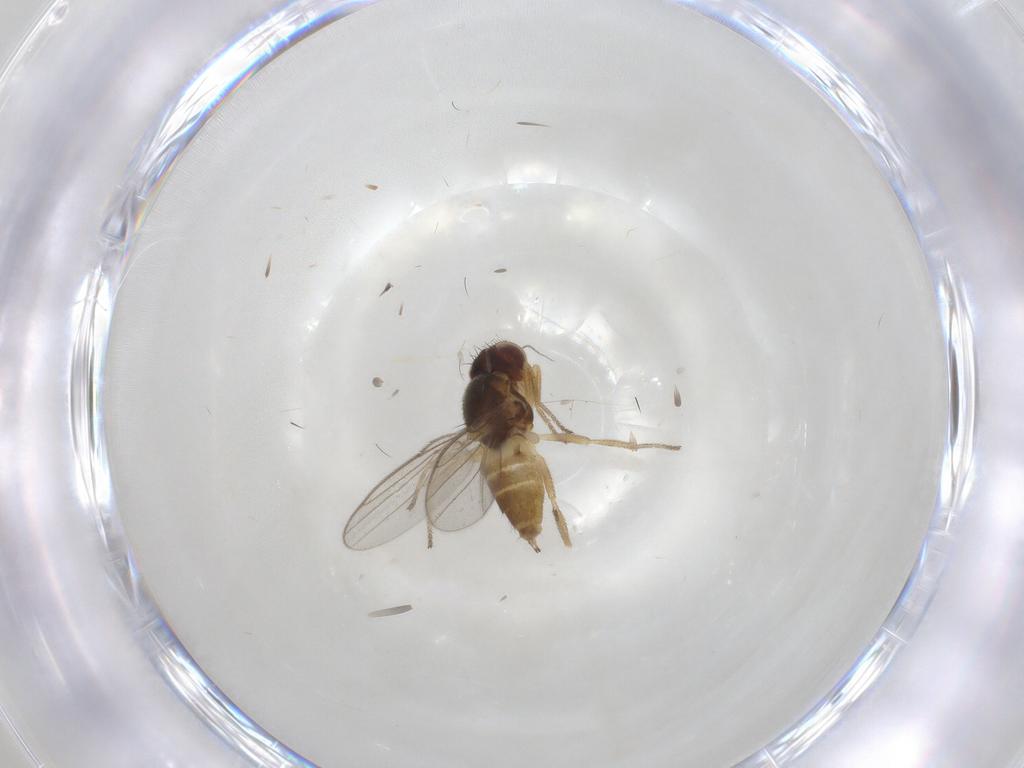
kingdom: Animalia
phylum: Arthropoda
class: Insecta
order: Diptera
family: Chloropidae
